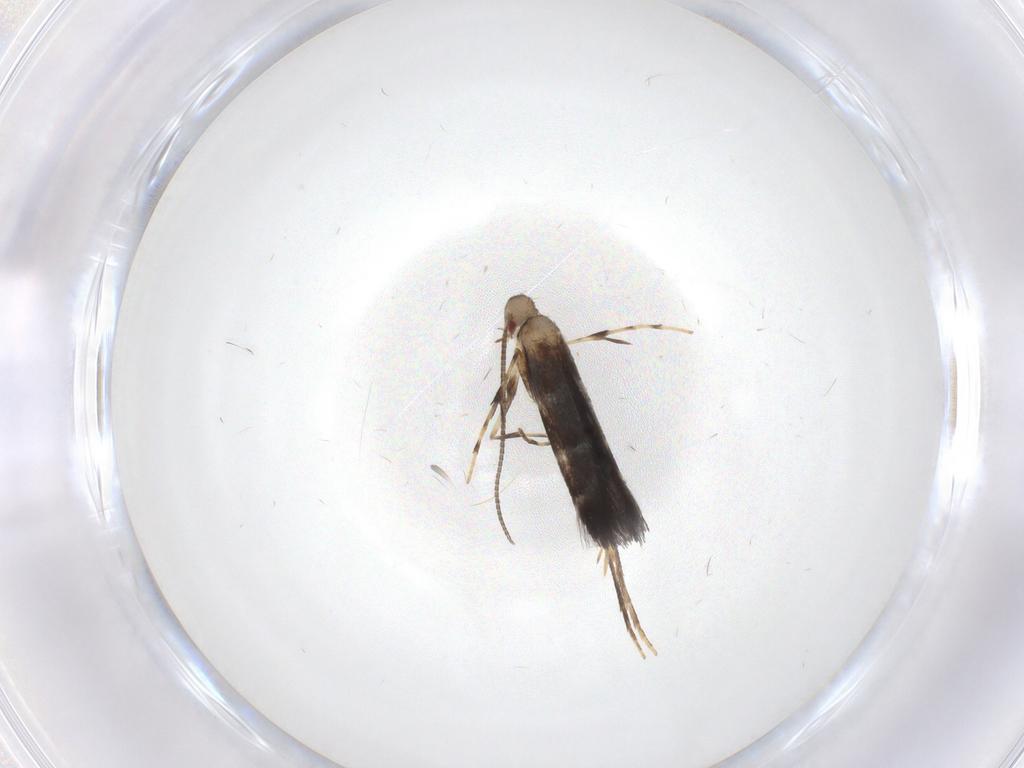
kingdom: Animalia
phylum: Arthropoda
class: Insecta
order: Lepidoptera
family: Gracillariidae
